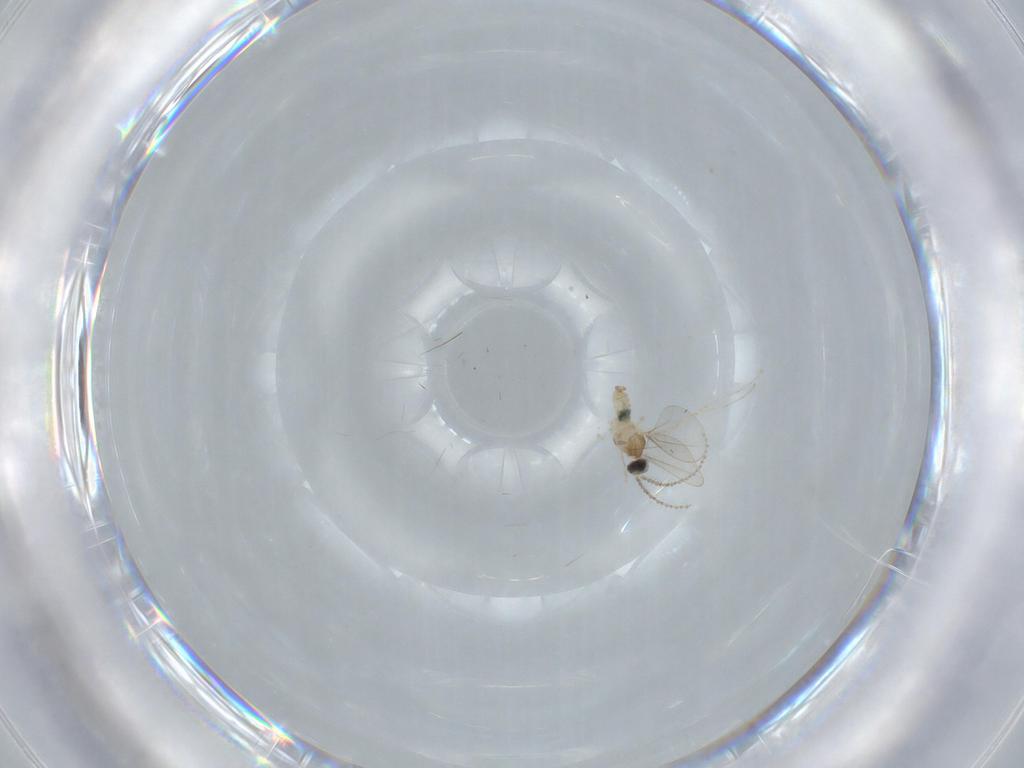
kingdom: Animalia
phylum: Arthropoda
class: Insecta
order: Diptera
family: Cecidomyiidae
